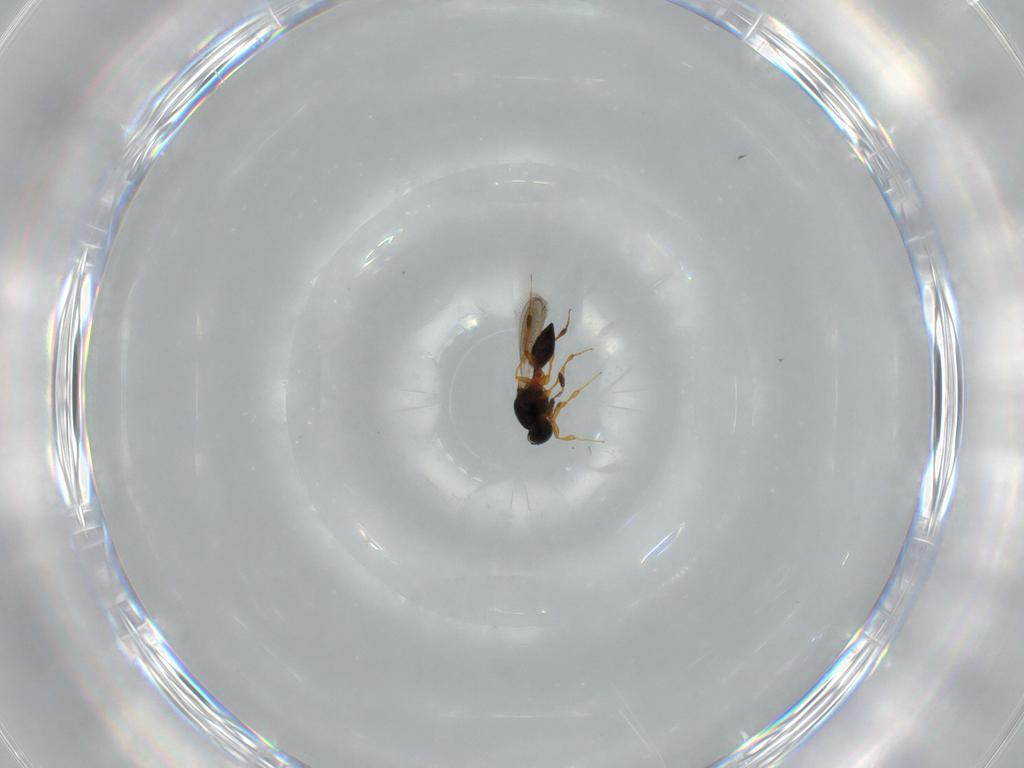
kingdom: Animalia
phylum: Arthropoda
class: Insecta
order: Hymenoptera
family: Platygastridae
